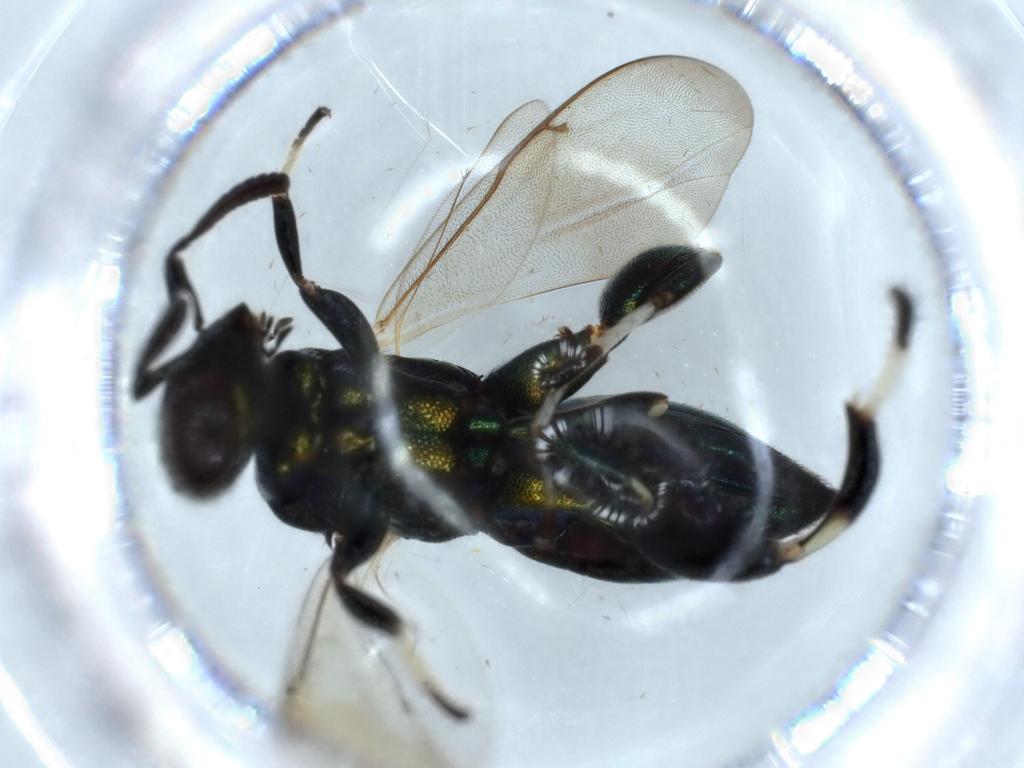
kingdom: Animalia
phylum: Arthropoda
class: Insecta
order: Hymenoptera
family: Pteromalidae
